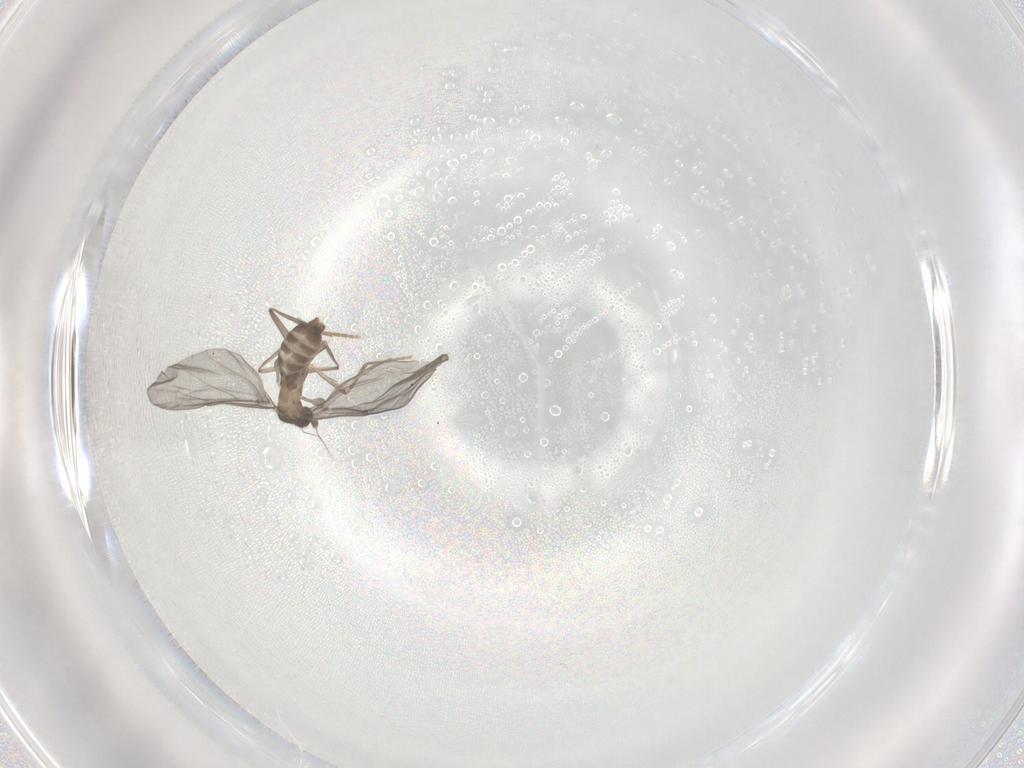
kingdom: Animalia
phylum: Arthropoda
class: Insecta
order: Diptera
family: Phoridae
